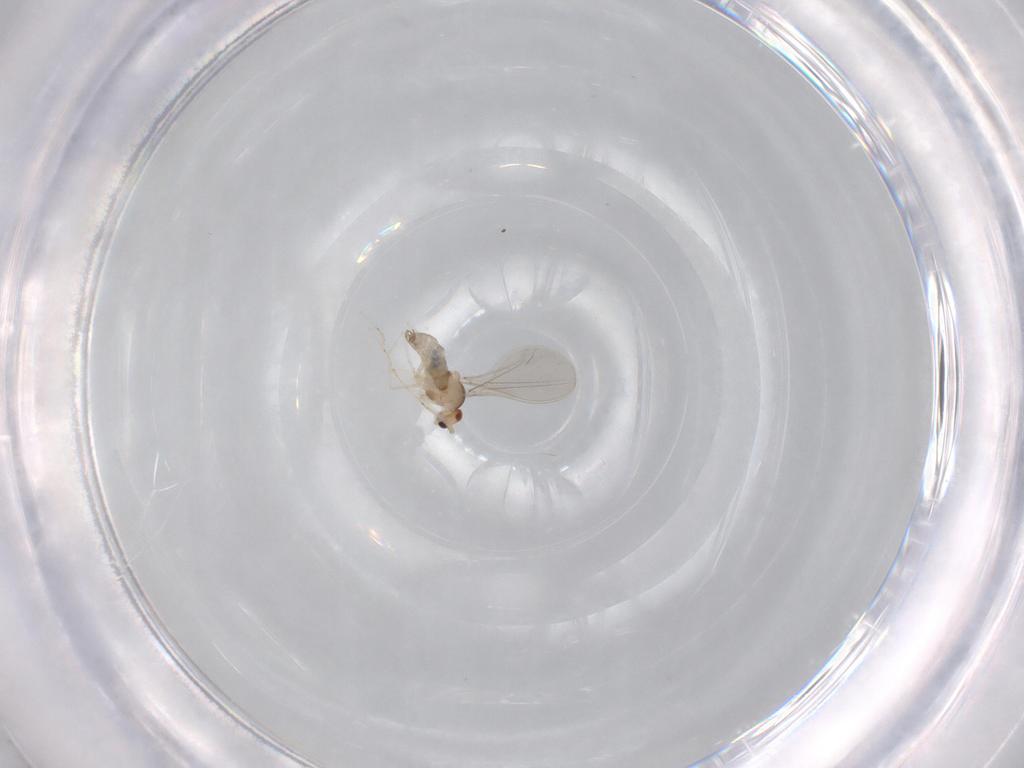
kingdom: Animalia
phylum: Arthropoda
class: Insecta
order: Diptera
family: Cecidomyiidae
